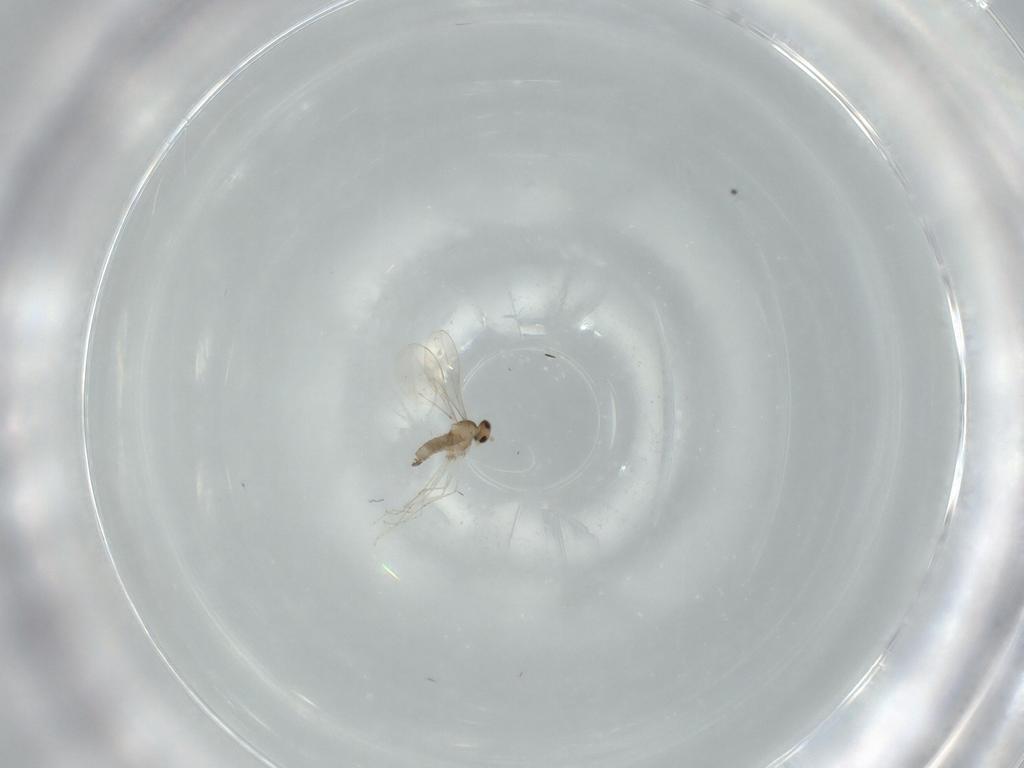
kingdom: Animalia
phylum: Arthropoda
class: Insecta
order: Diptera
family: Cecidomyiidae
